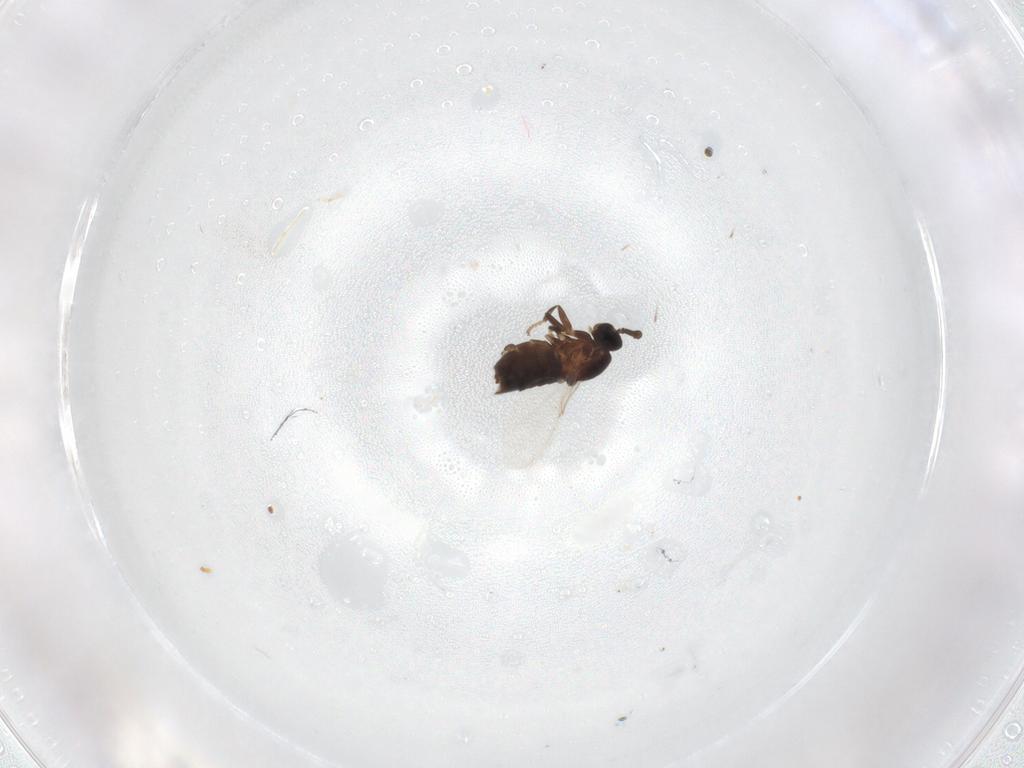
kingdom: Animalia
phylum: Arthropoda
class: Insecta
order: Diptera
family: Scatopsidae
